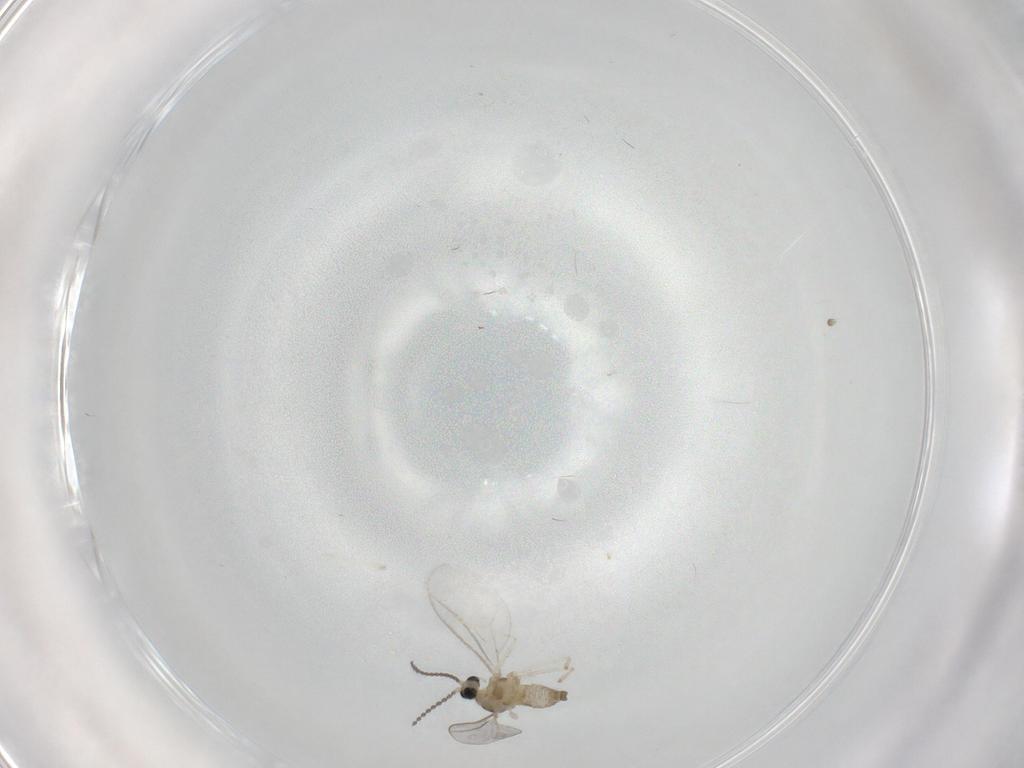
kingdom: Animalia
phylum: Arthropoda
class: Insecta
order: Diptera
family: Cecidomyiidae
